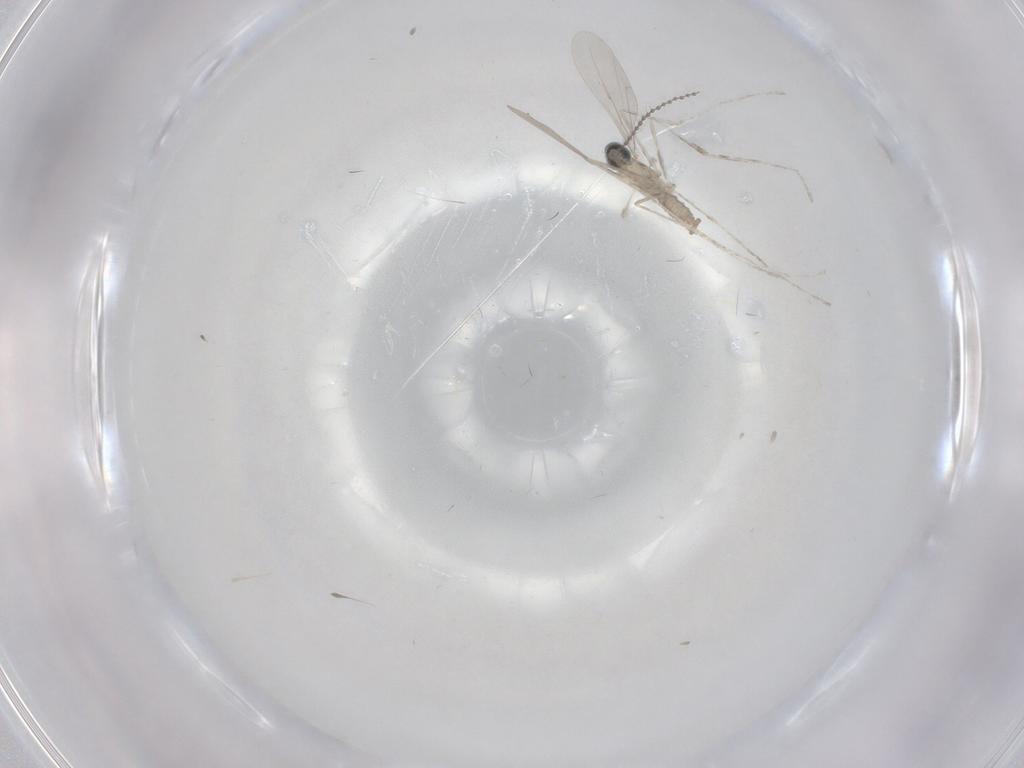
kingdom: Animalia
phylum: Arthropoda
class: Insecta
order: Diptera
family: Cecidomyiidae
